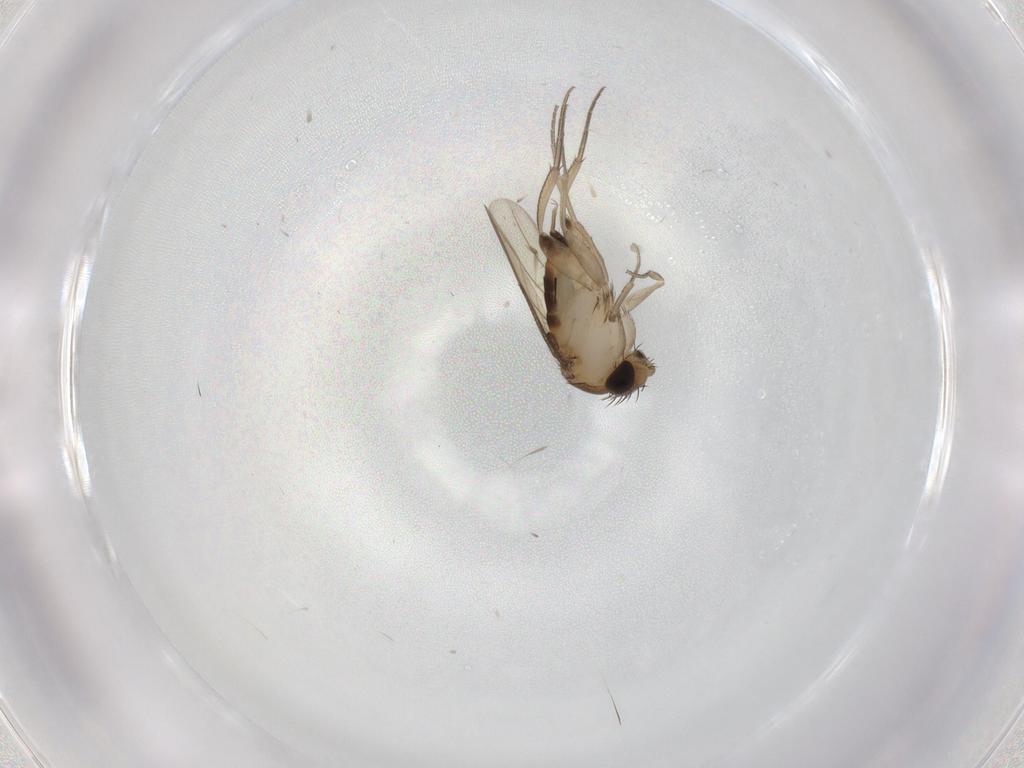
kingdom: Animalia
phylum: Arthropoda
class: Insecta
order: Diptera
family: Phoridae
